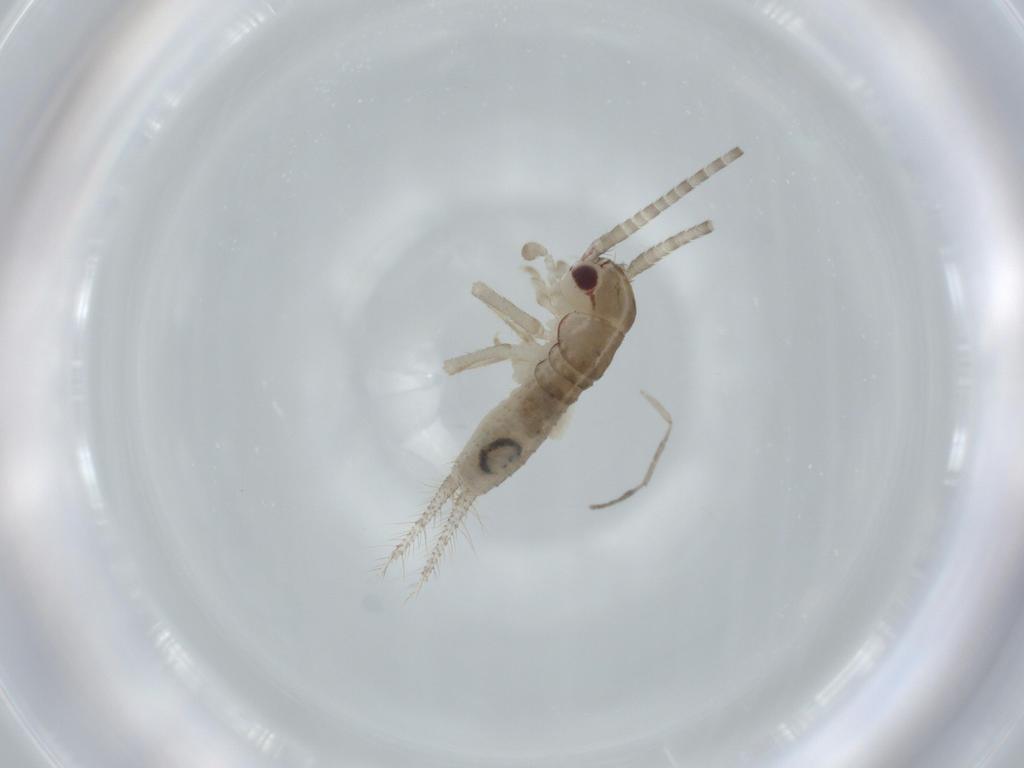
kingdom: Animalia
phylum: Arthropoda
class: Insecta
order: Orthoptera
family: Gryllidae
